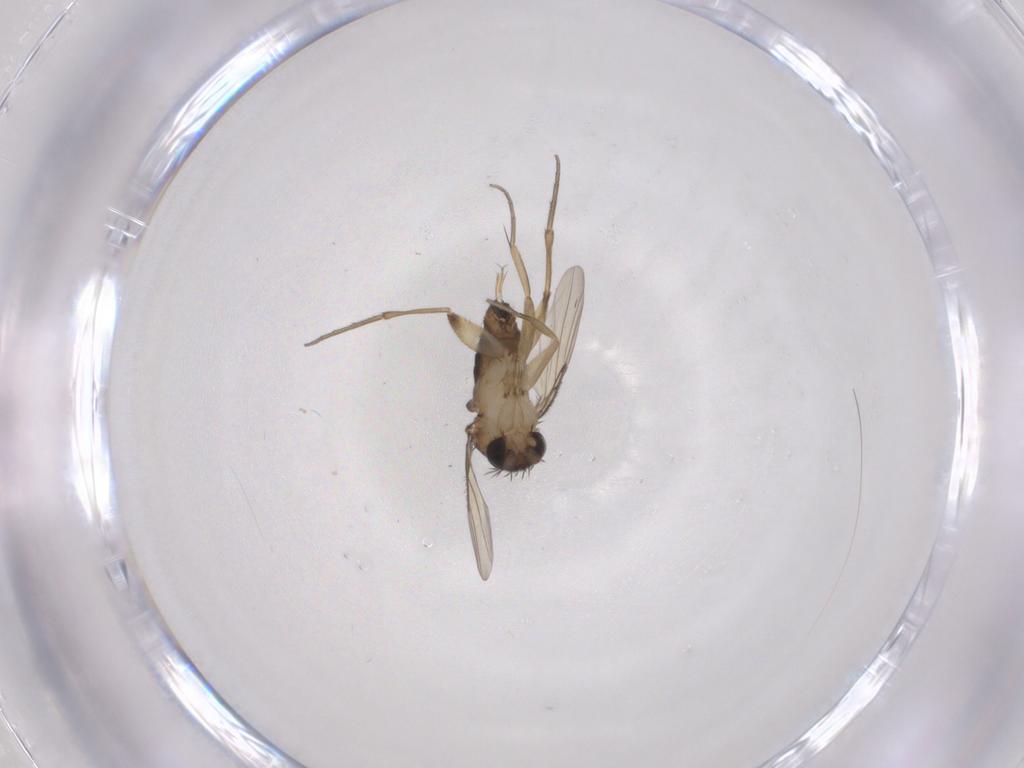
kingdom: Animalia
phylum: Arthropoda
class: Insecta
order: Diptera
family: Phoridae
